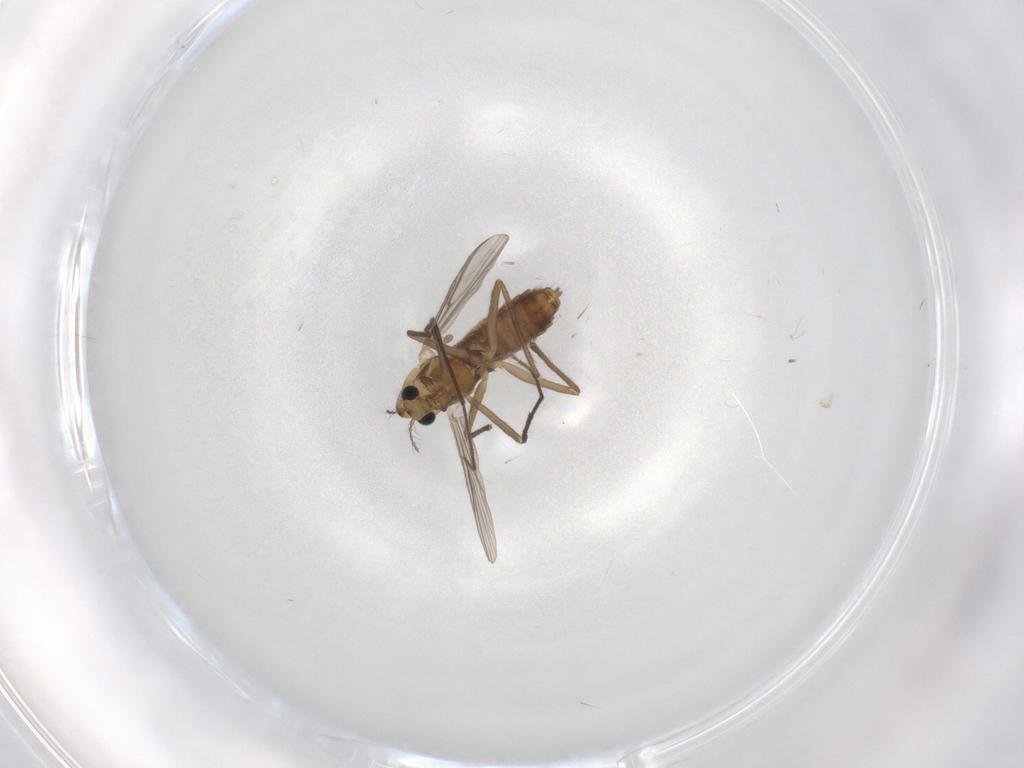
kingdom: Animalia
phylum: Arthropoda
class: Insecta
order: Diptera
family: Chironomidae
